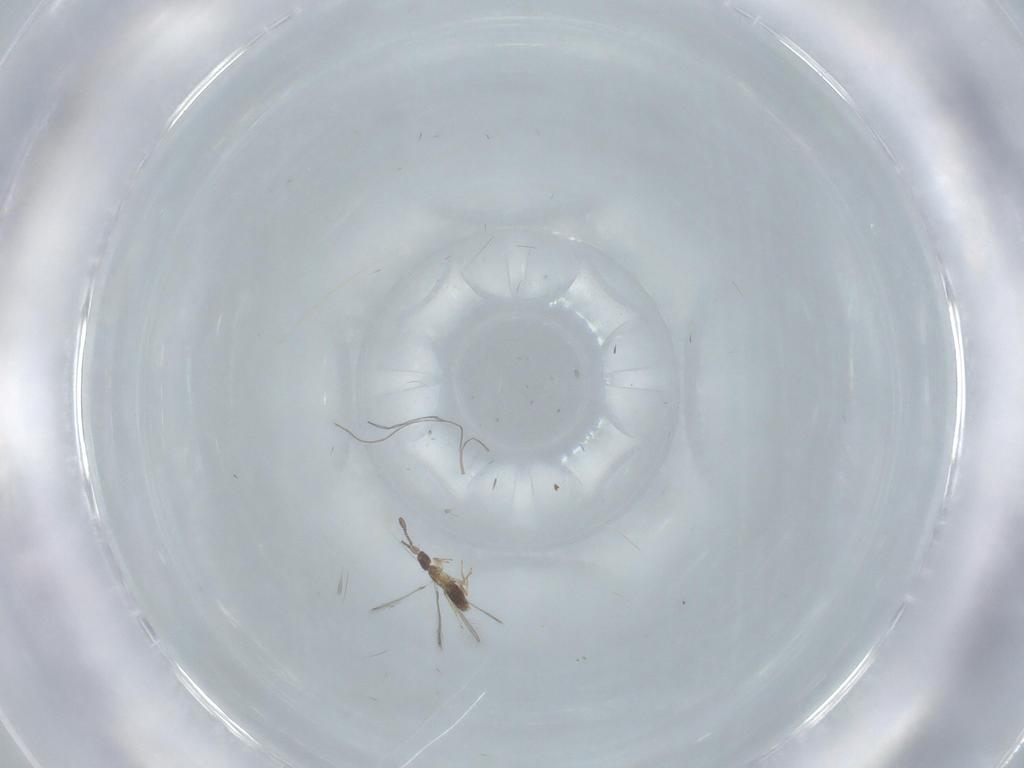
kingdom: Animalia
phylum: Arthropoda
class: Insecta
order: Hymenoptera
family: Mymaridae
